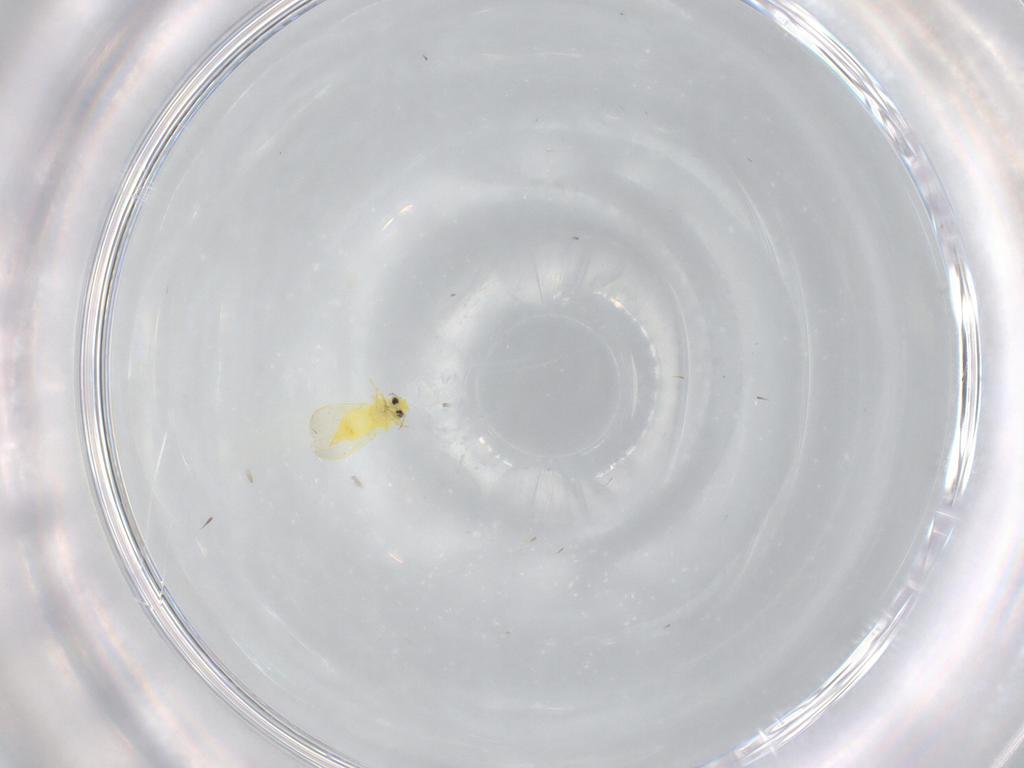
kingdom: Animalia
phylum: Arthropoda
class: Insecta
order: Hemiptera
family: Aleyrodidae
